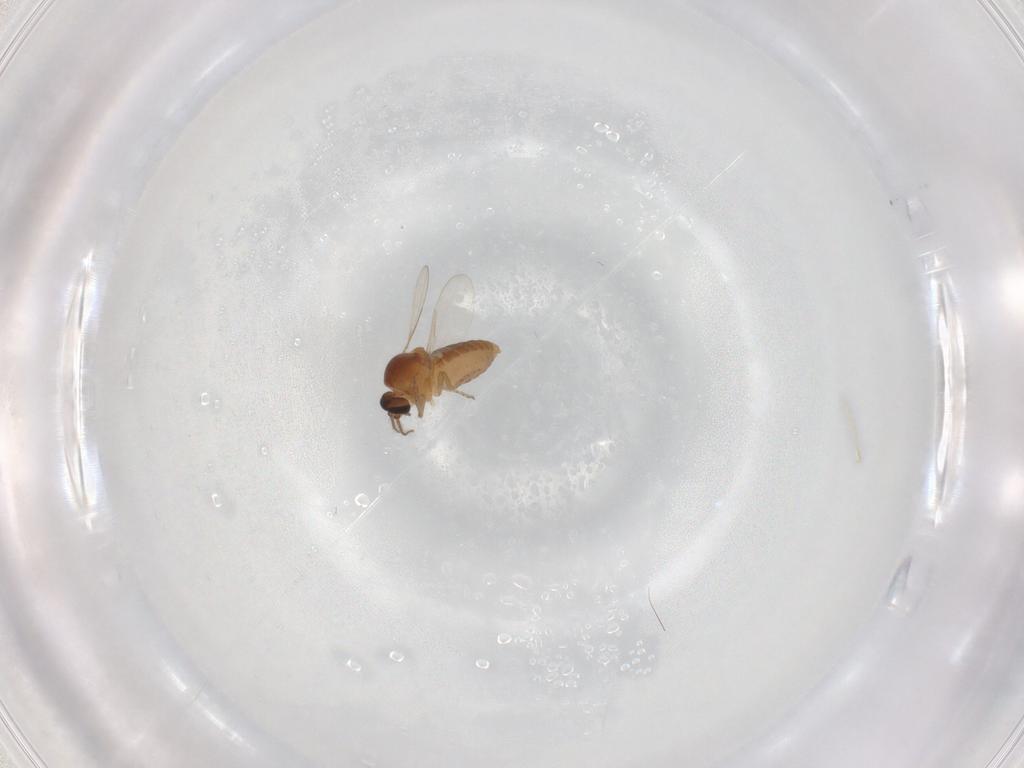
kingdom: Animalia
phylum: Arthropoda
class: Insecta
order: Diptera
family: Ceratopogonidae
